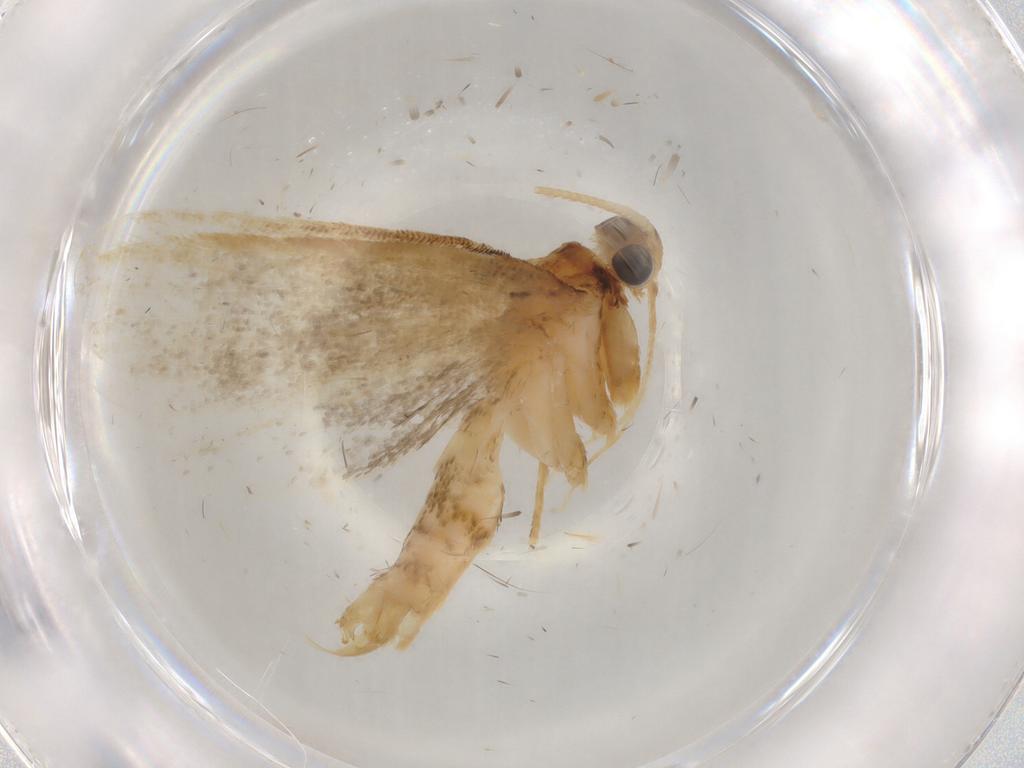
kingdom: Animalia
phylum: Arthropoda
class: Insecta
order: Lepidoptera
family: Lecithoceridae
